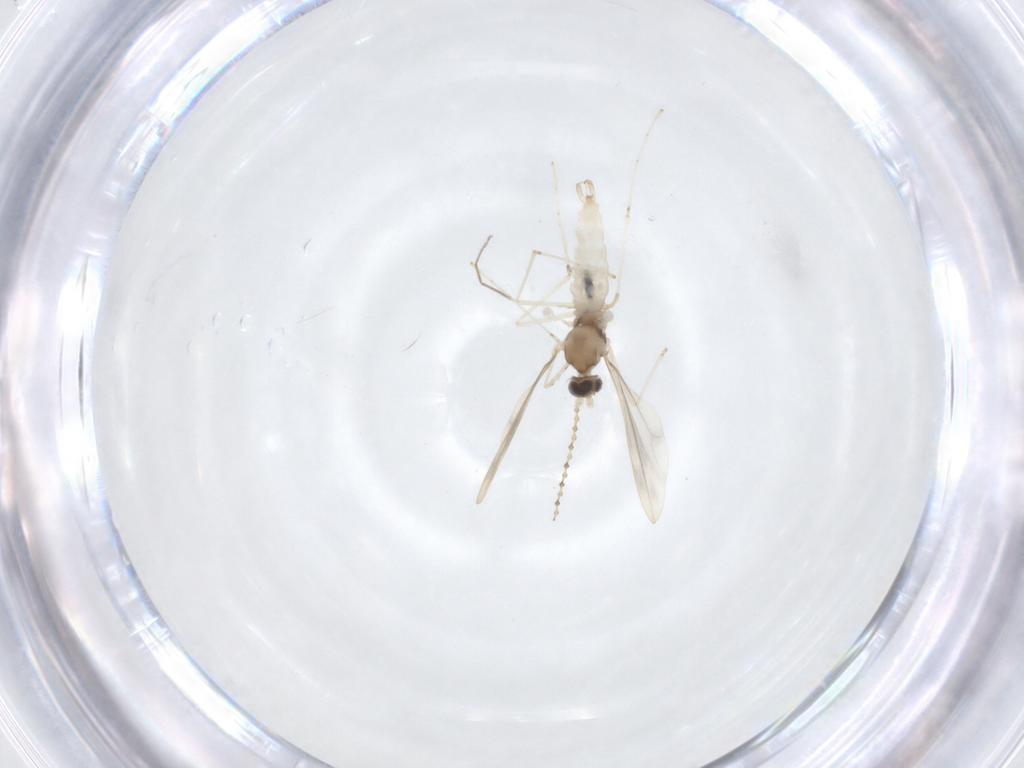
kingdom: Animalia
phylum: Arthropoda
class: Insecta
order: Diptera
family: Cecidomyiidae
